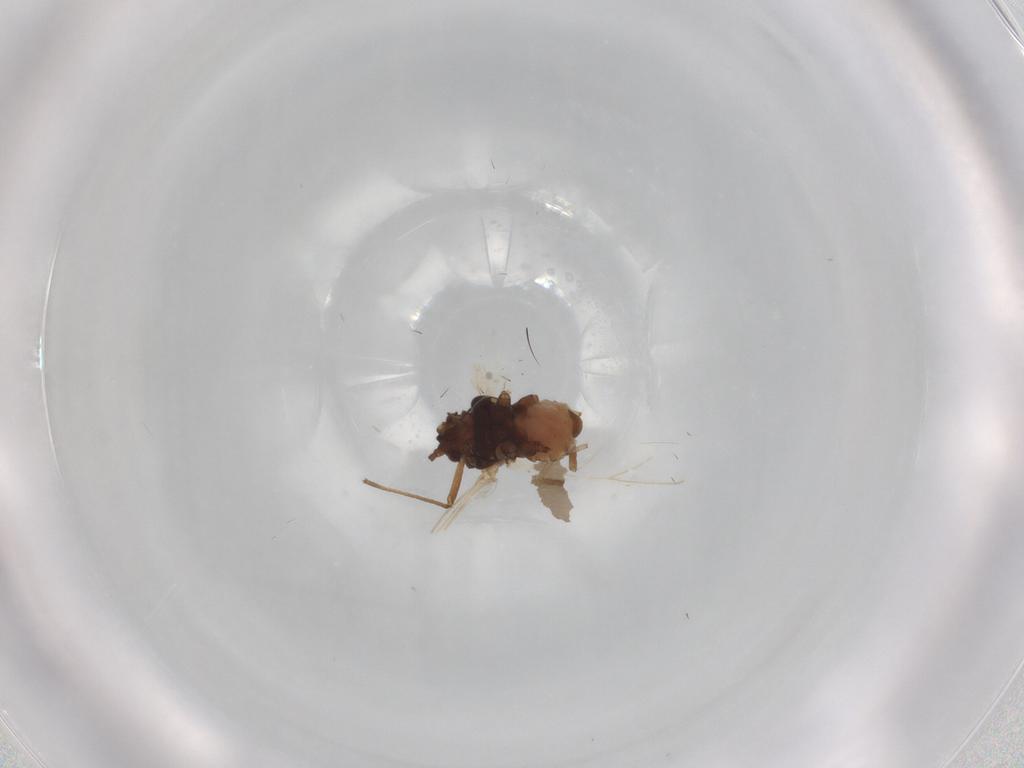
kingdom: Animalia
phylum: Arthropoda
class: Insecta
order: Hemiptera
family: Aphididae
